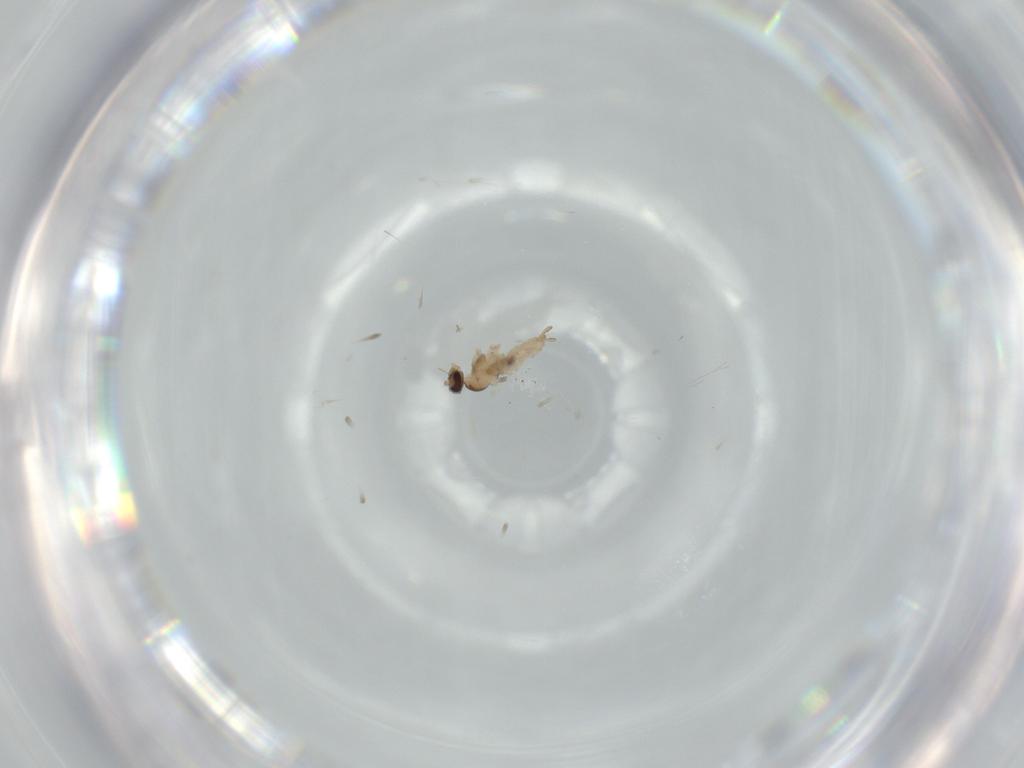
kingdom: Animalia
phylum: Arthropoda
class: Insecta
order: Diptera
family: Cecidomyiidae
